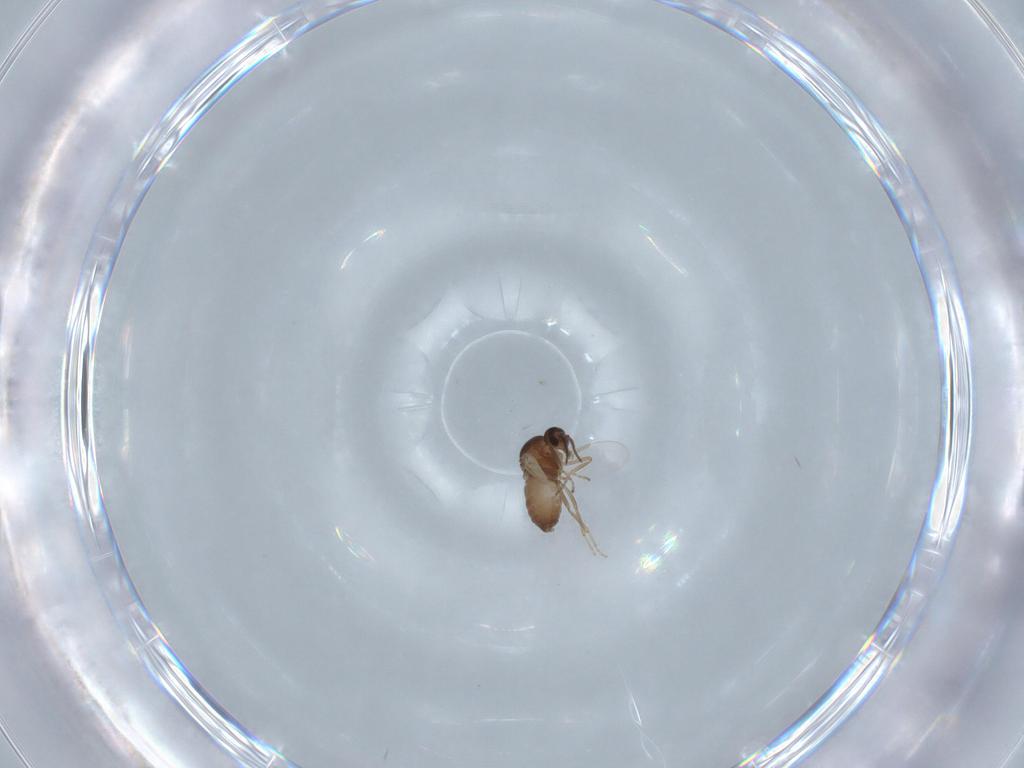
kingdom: Animalia
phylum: Arthropoda
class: Insecta
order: Diptera
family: Ceratopogonidae
